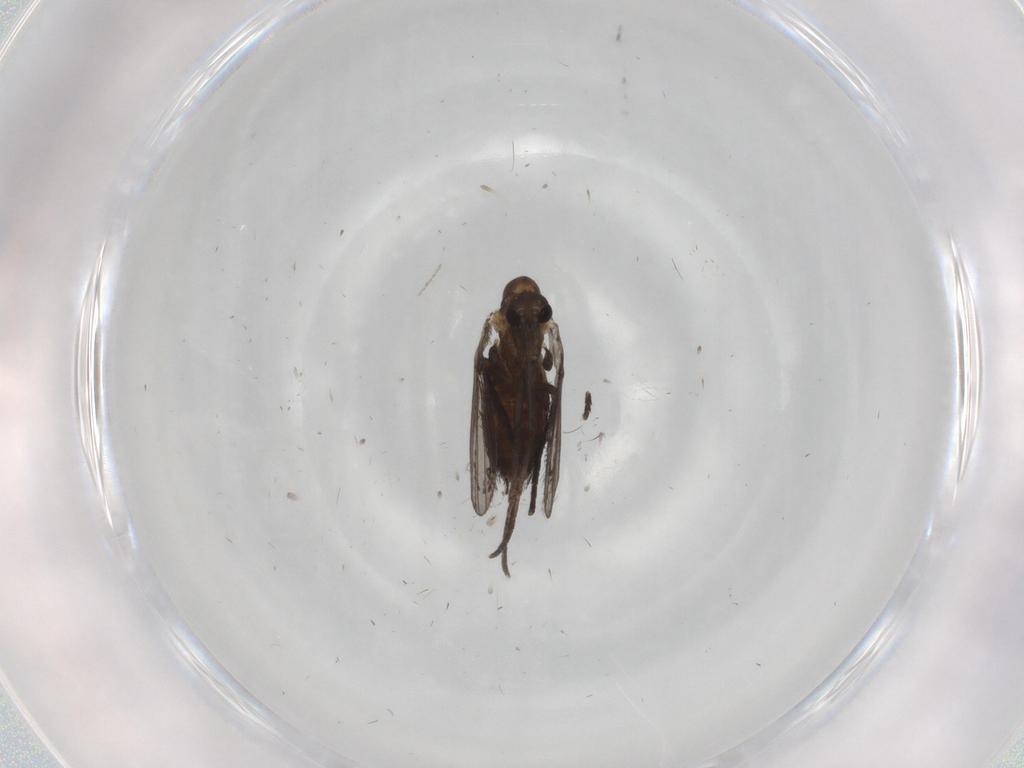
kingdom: Animalia
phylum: Arthropoda
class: Insecta
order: Diptera
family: Cecidomyiidae
